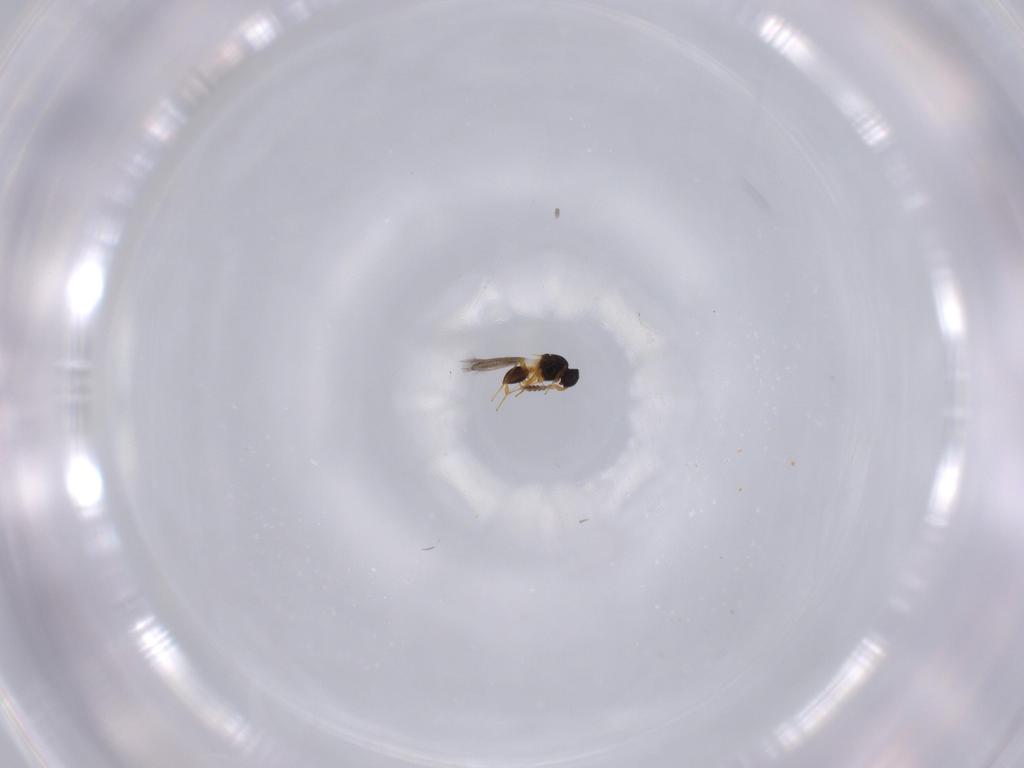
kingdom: Animalia
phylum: Arthropoda
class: Insecta
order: Hymenoptera
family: Platygastridae
